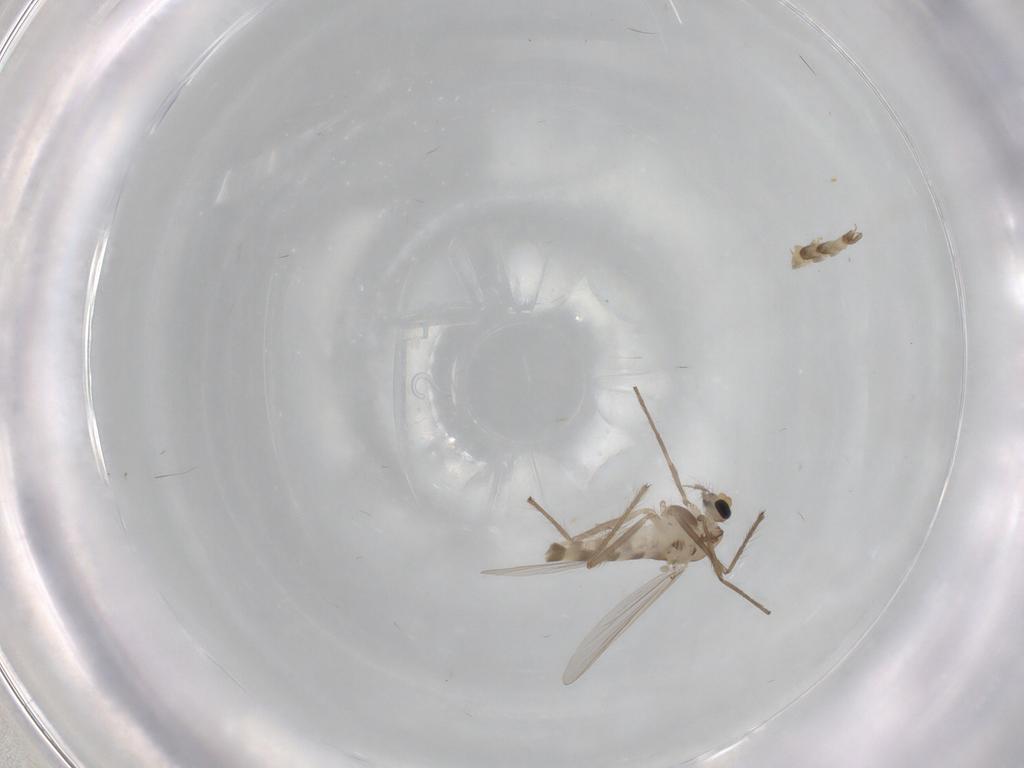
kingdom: Animalia
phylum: Arthropoda
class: Insecta
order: Diptera
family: Chironomidae
